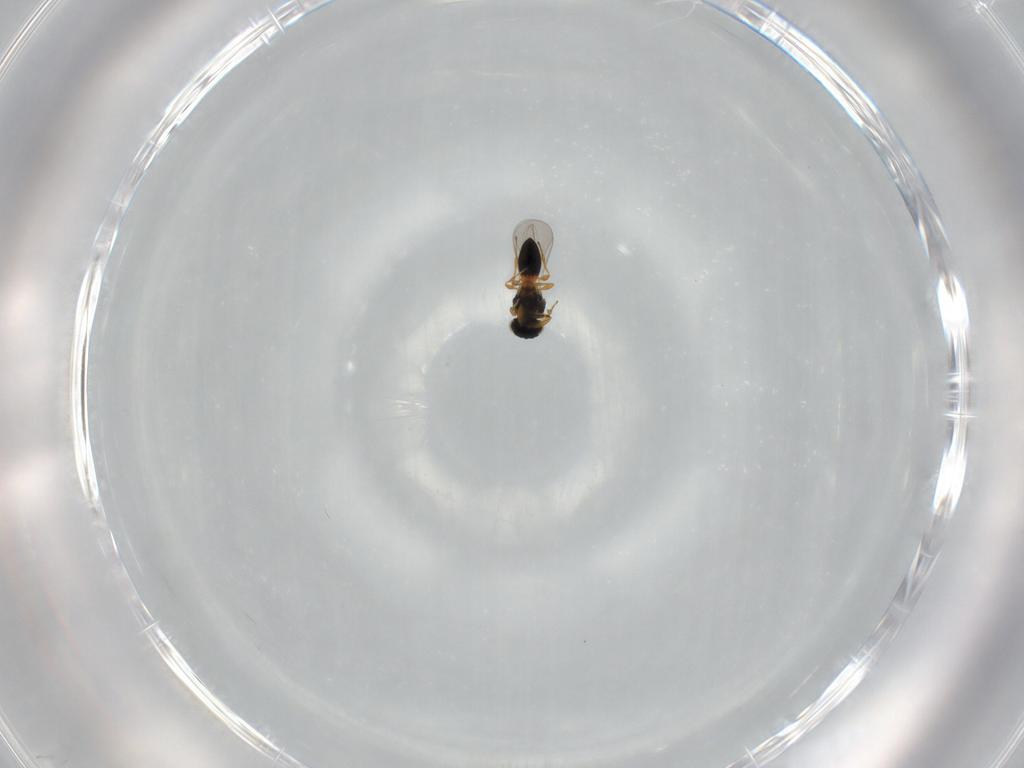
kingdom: Animalia
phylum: Arthropoda
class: Insecta
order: Hymenoptera
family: Platygastridae
